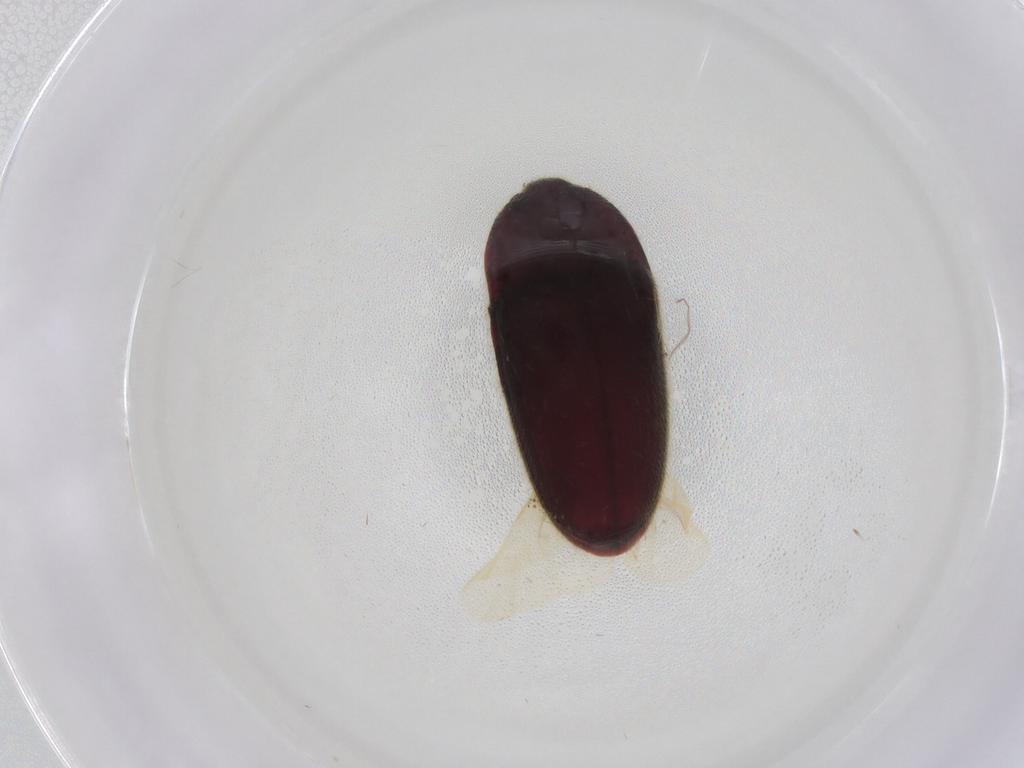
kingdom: Animalia
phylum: Arthropoda
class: Insecta
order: Coleoptera
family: Throscidae
